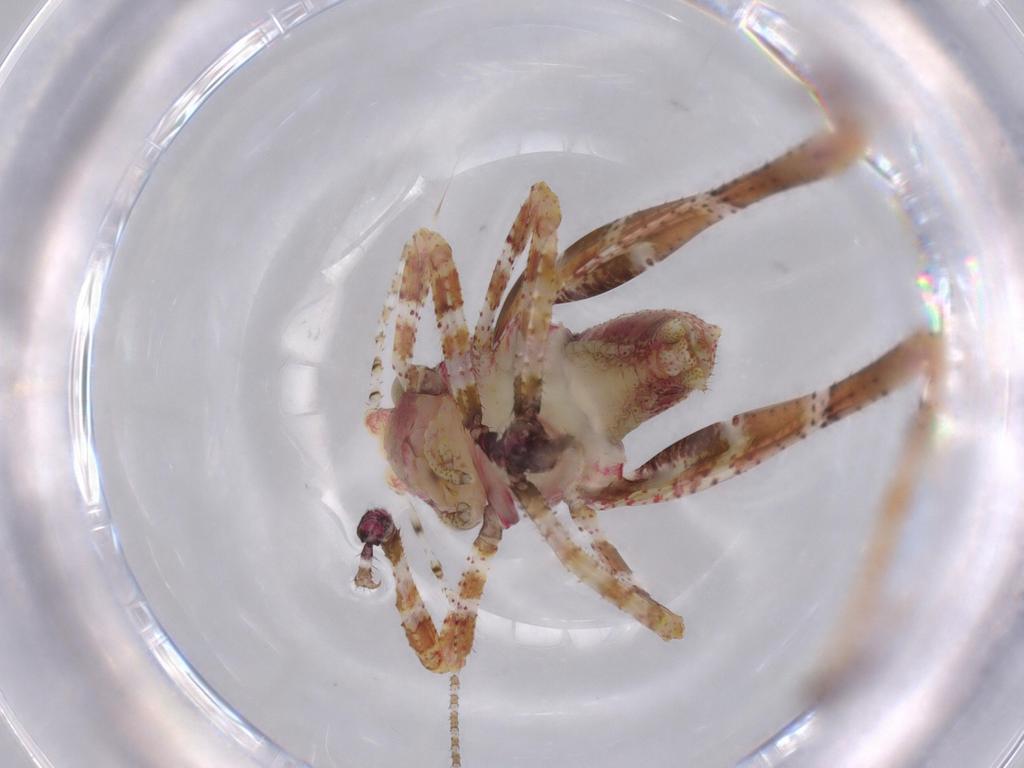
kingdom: Animalia
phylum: Arthropoda
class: Insecta
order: Orthoptera
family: Tettigoniidae
